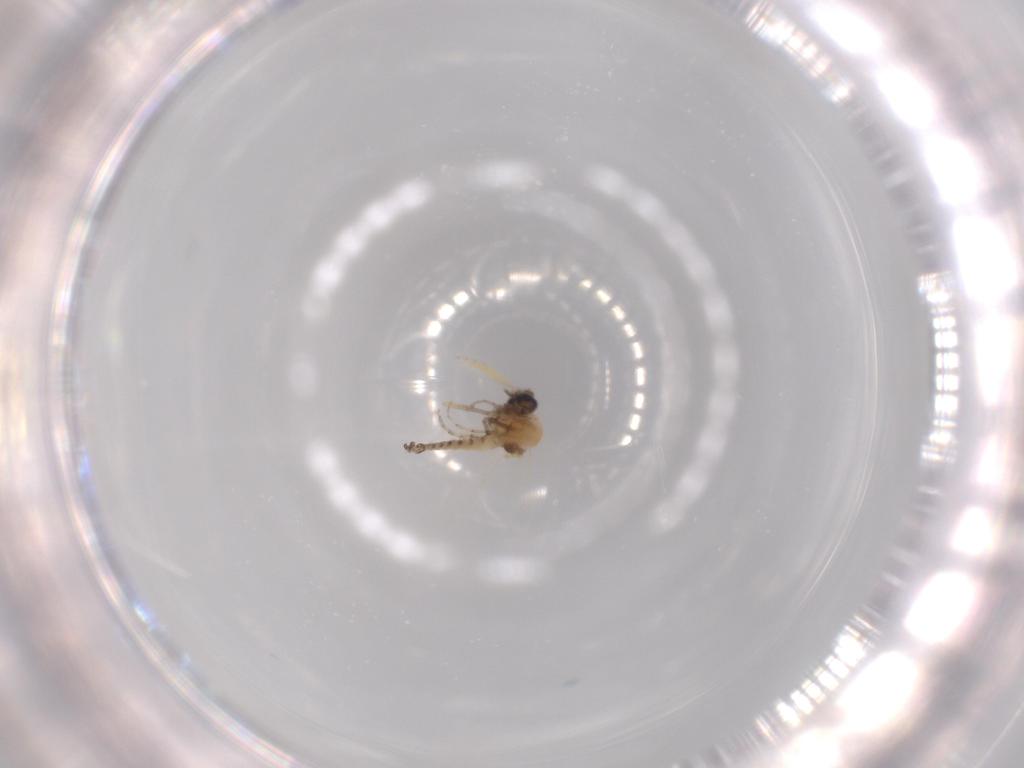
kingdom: Animalia
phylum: Arthropoda
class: Insecta
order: Diptera
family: Ceratopogonidae
